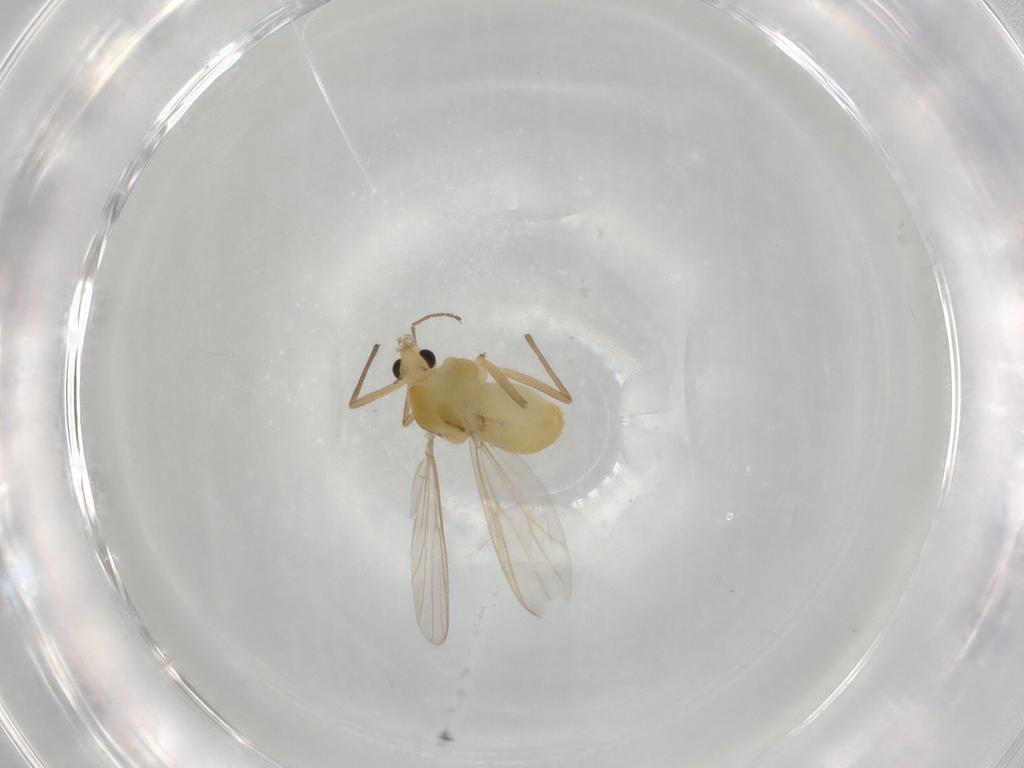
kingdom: Animalia
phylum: Arthropoda
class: Insecta
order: Diptera
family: Chironomidae
